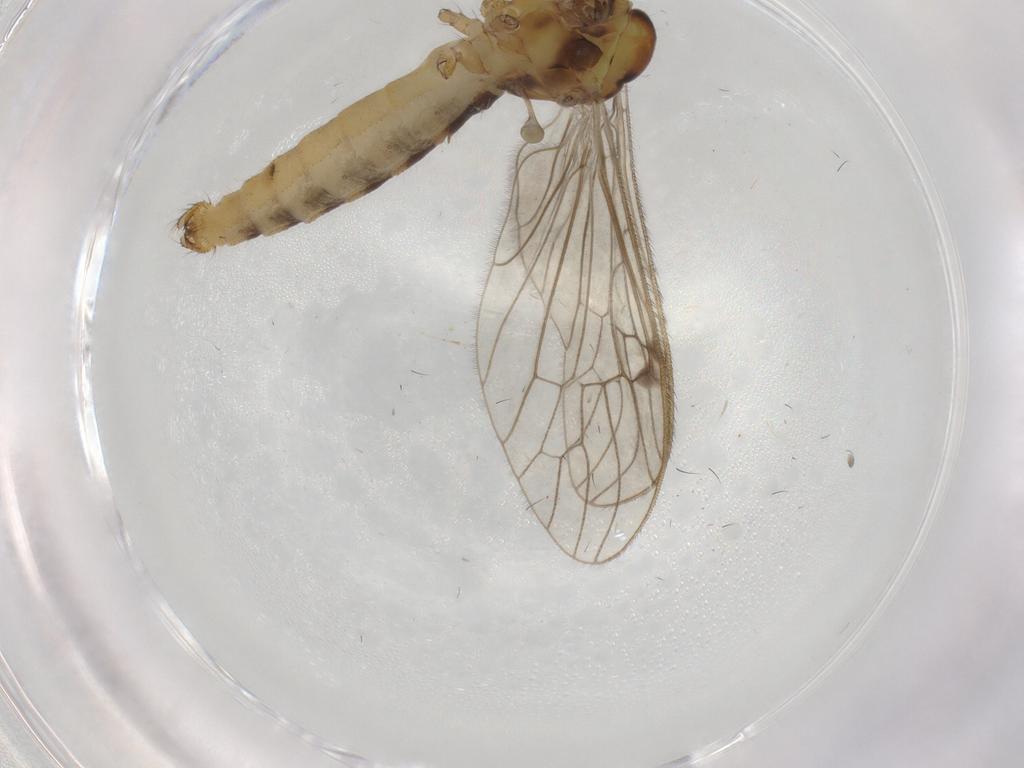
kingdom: Animalia
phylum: Arthropoda
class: Insecta
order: Diptera
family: Limoniidae
